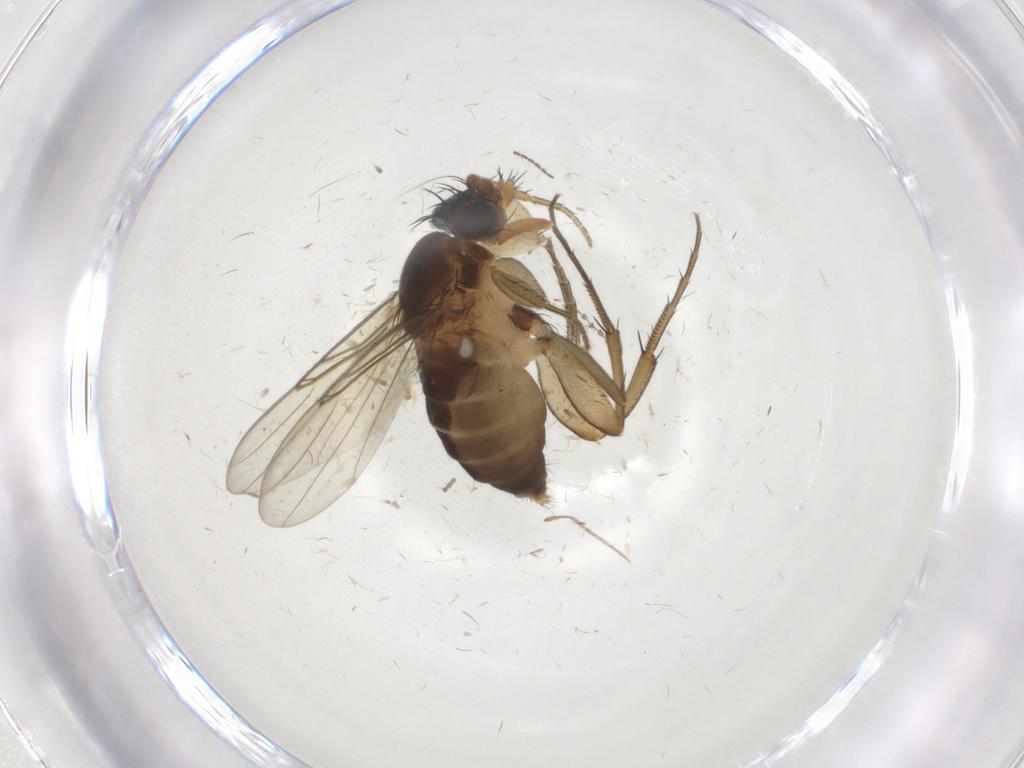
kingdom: Animalia
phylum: Arthropoda
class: Insecta
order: Diptera
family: Phoridae
